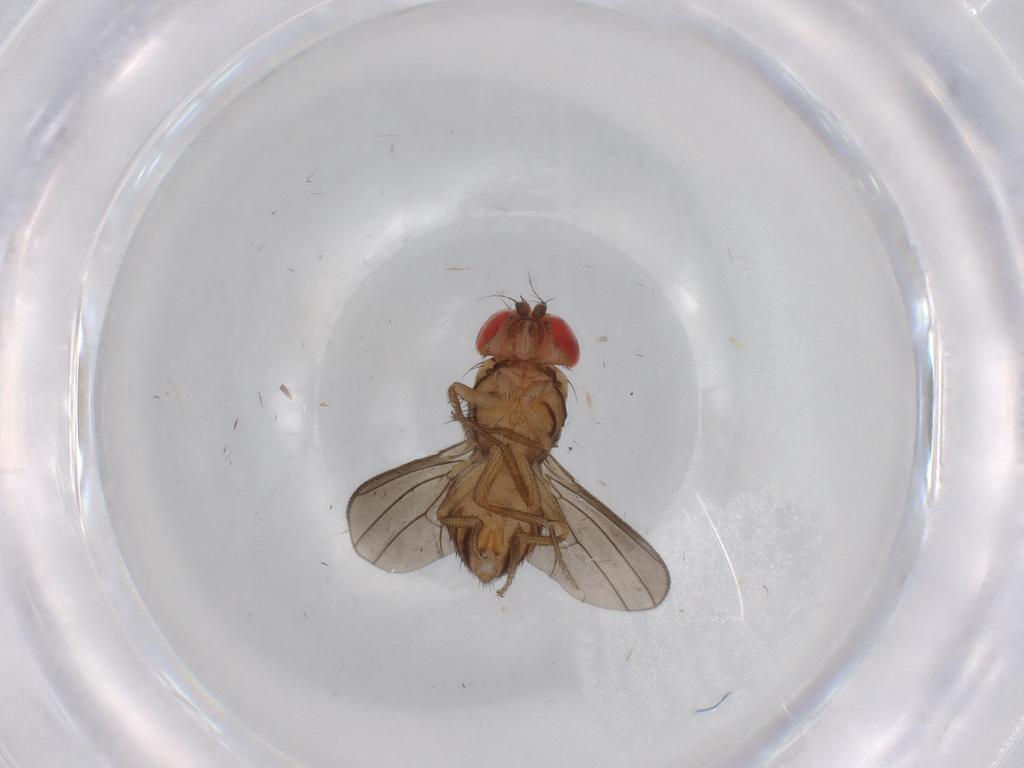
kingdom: Animalia
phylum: Arthropoda
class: Insecta
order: Diptera
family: Drosophilidae
